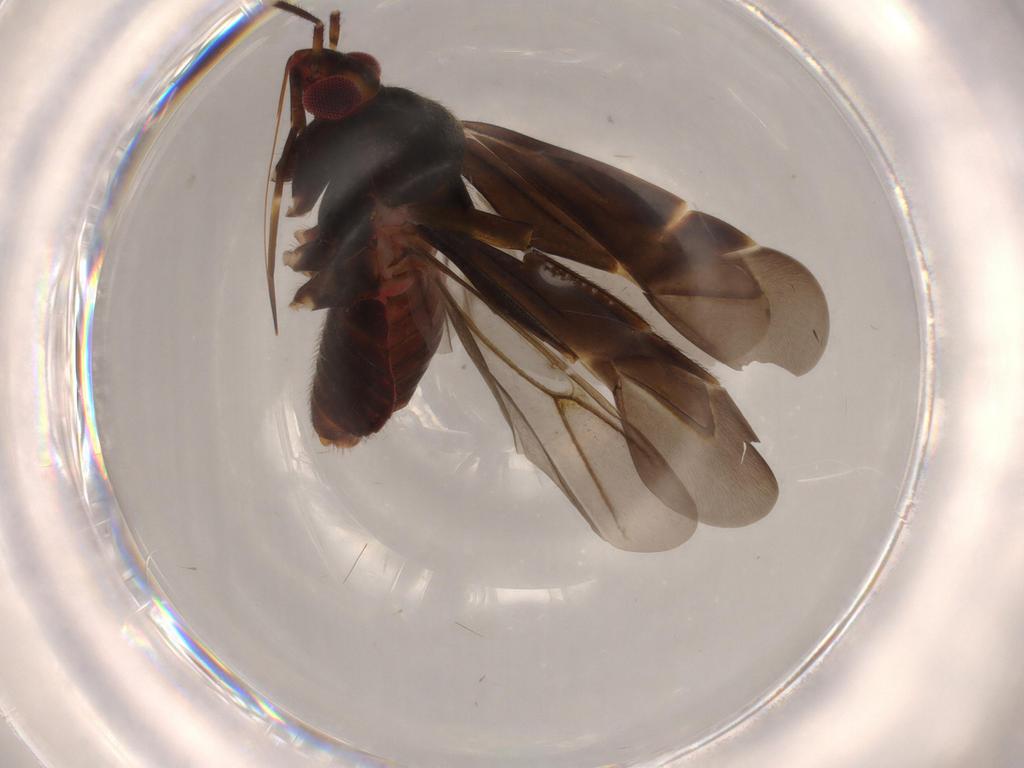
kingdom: Animalia
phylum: Arthropoda
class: Insecta
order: Hemiptera
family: Miridae
